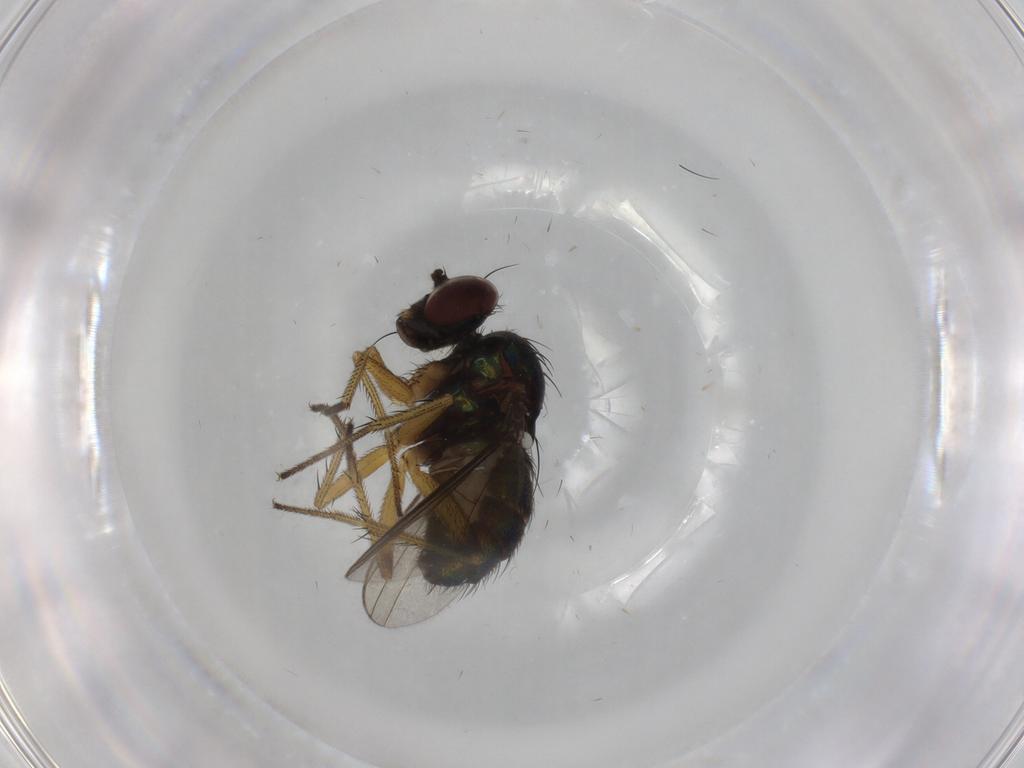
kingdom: Animalia
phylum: Arthropoda
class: Insecta
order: Diptera
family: Dolichopodidae
